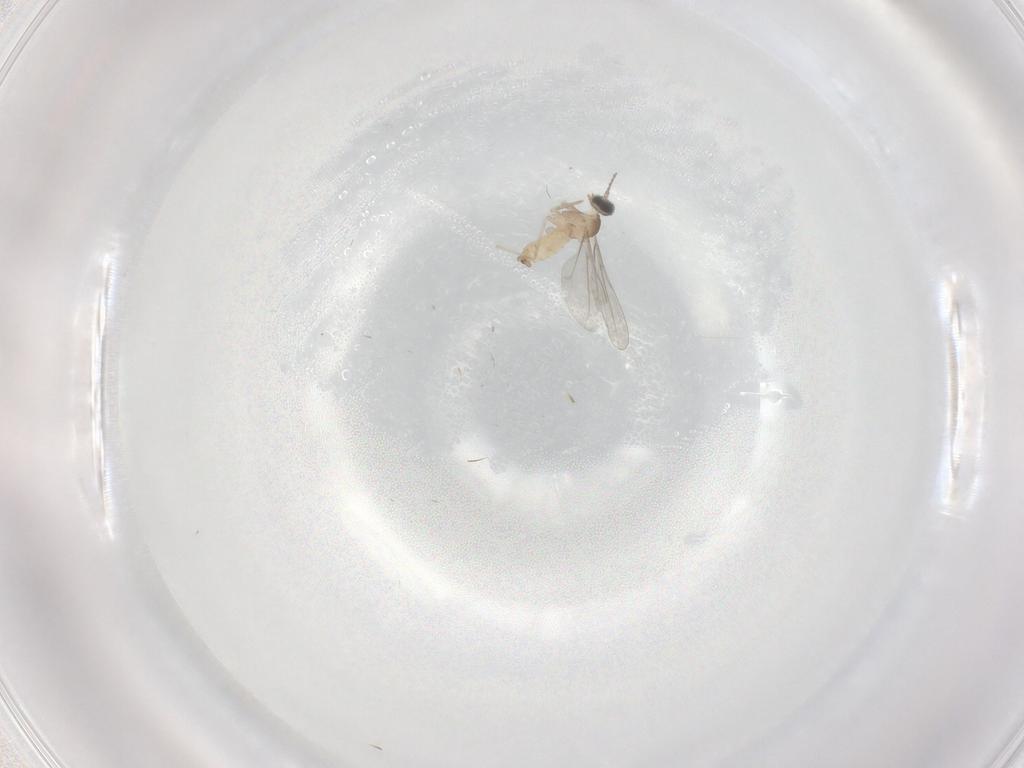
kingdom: Animalia
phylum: Arthropoda
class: Insecta
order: Diptera
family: Cecidomyiidae
